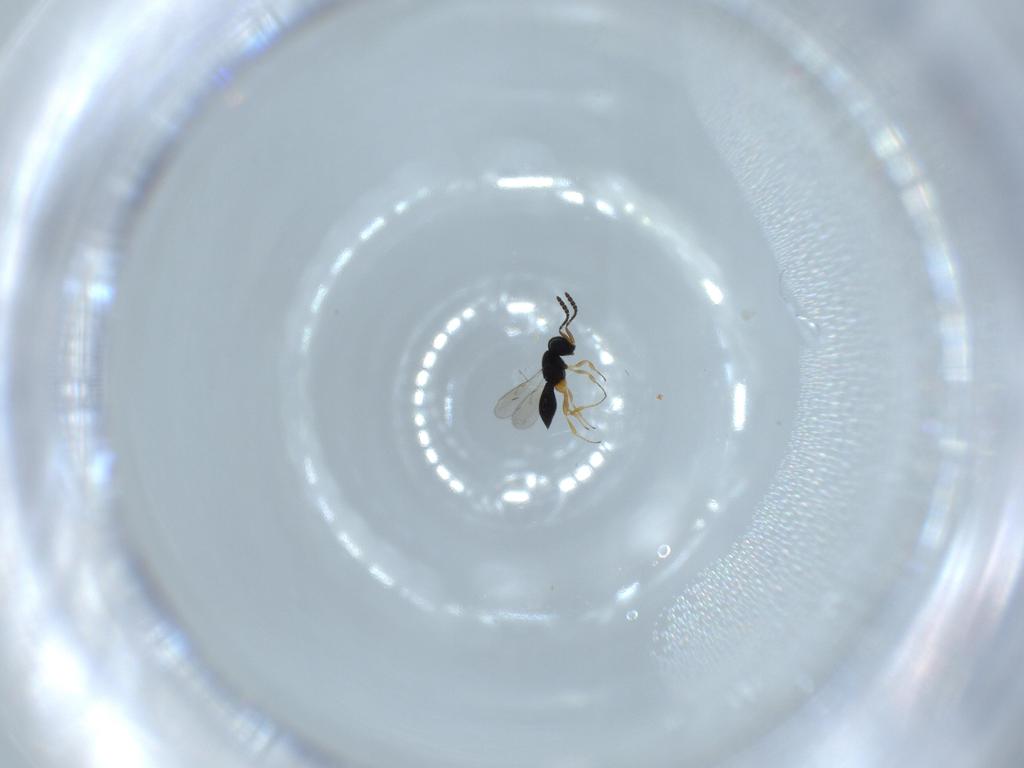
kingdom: Animalia
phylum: Arthropoda
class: Insecta
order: Hymenoptera
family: Scelionidae
